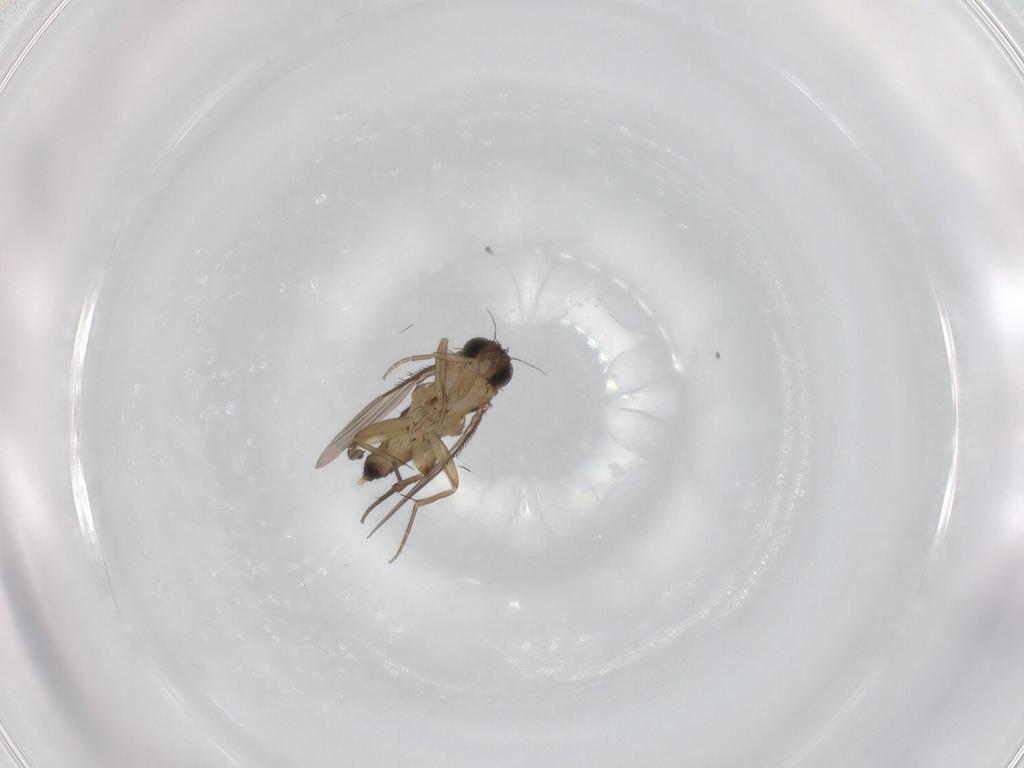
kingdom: Animalia
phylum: Arthropoda
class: Insecta
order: Diptera
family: Phoridae
